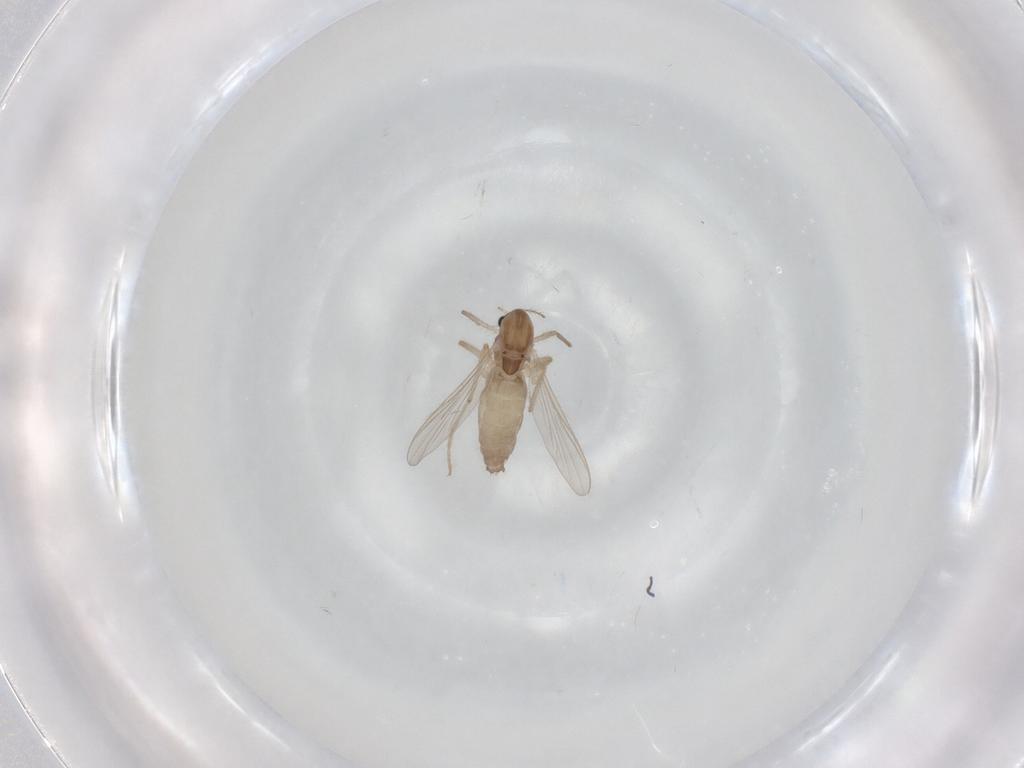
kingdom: Animalia
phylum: Arthropoda
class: Insecta
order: Diptera
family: Chironomidae
